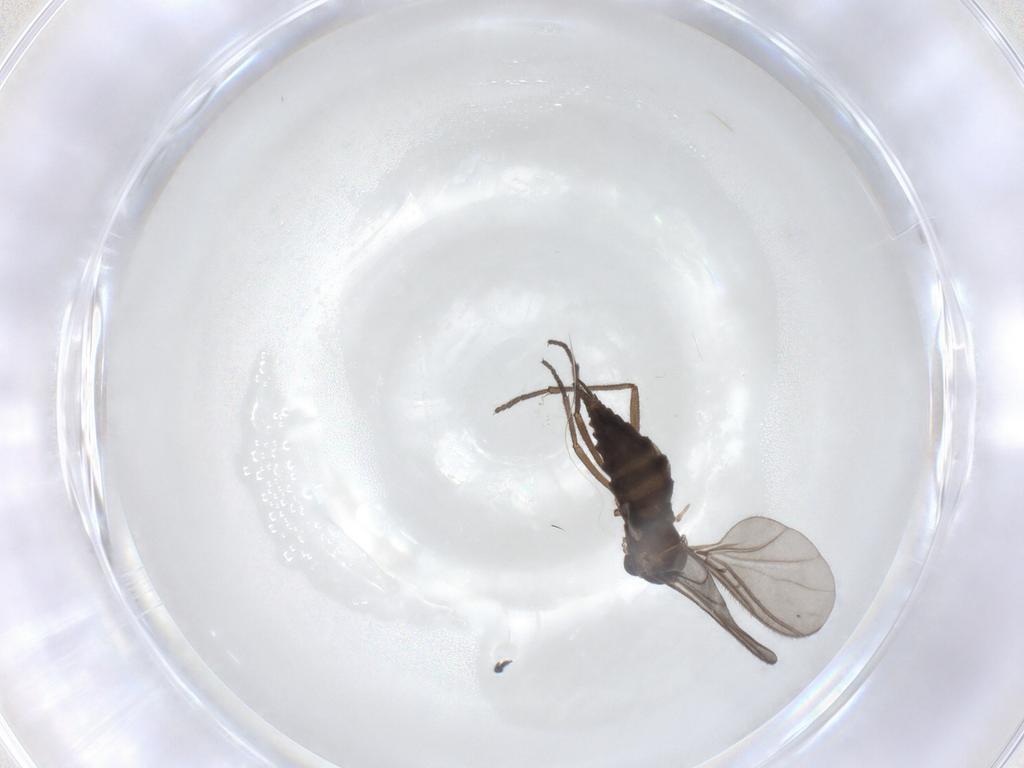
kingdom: Animalia
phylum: Arthropoda
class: Insecta
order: Diptera
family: Sciaridae
